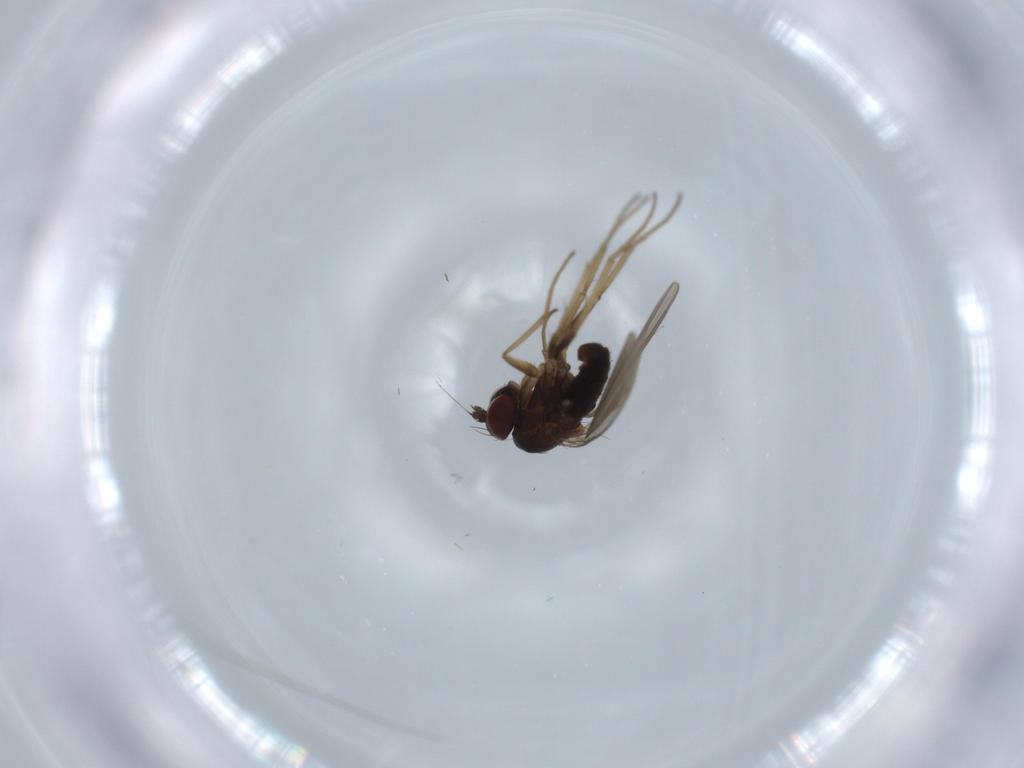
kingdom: Animalia
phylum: Arthropoda
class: Insecta
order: Diptera
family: Dolichopodidae
